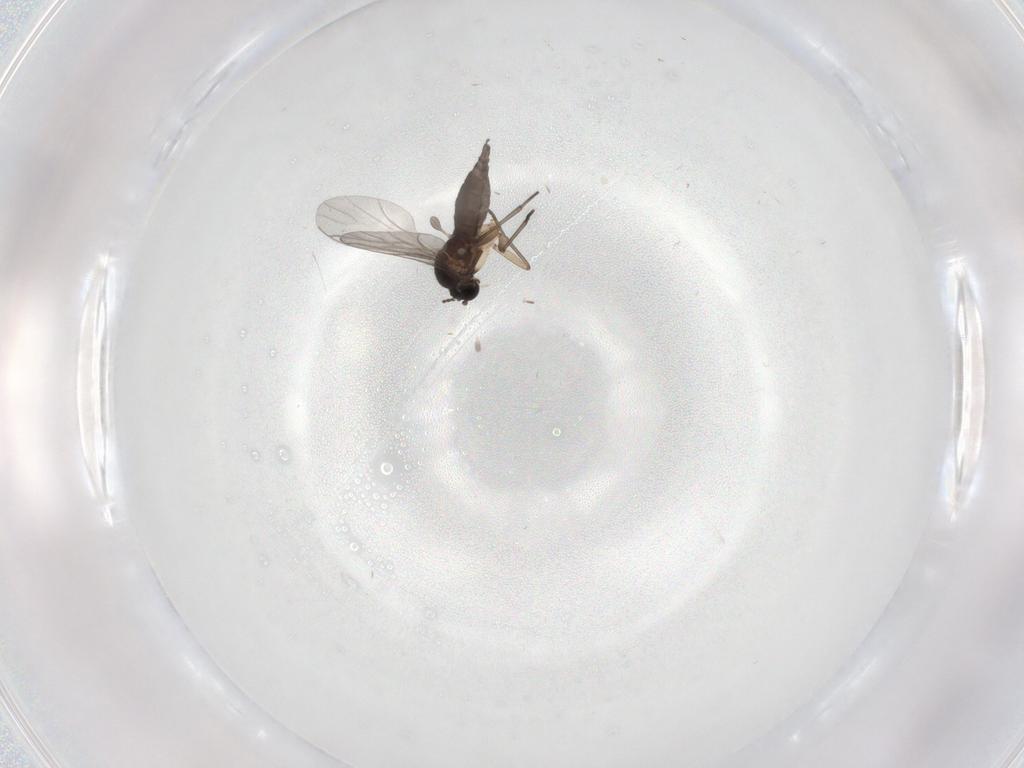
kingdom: Animalia
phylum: Arthropoda
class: Insecta
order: Diptera
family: Sciaridae
